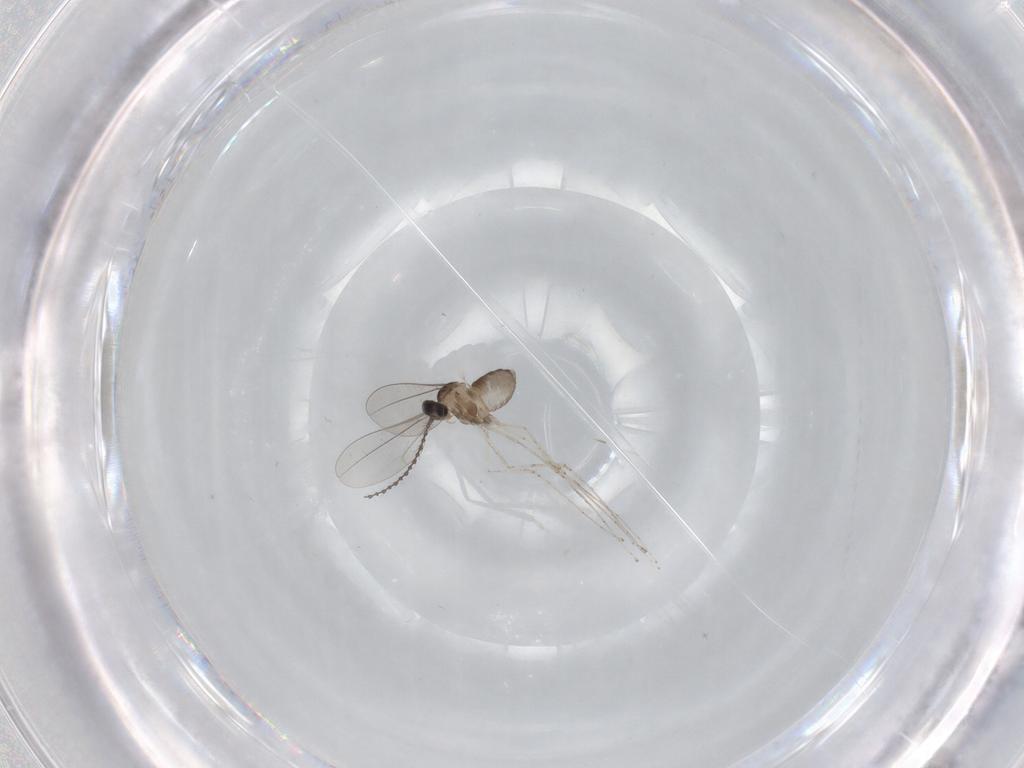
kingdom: Animalia
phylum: Arthropoda
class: Insecta
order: Diptera
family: Cecidomyiidae
